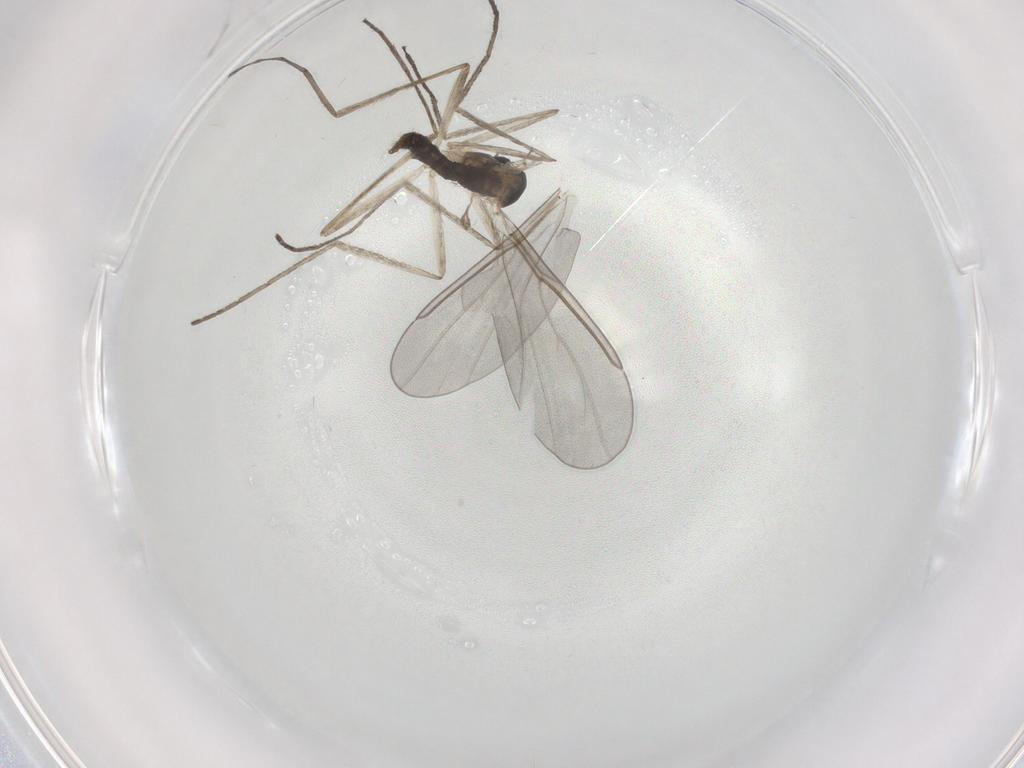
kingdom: Animalia
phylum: Arthropoda
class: Insecta
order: Diptera
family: Cecidomyiidae
